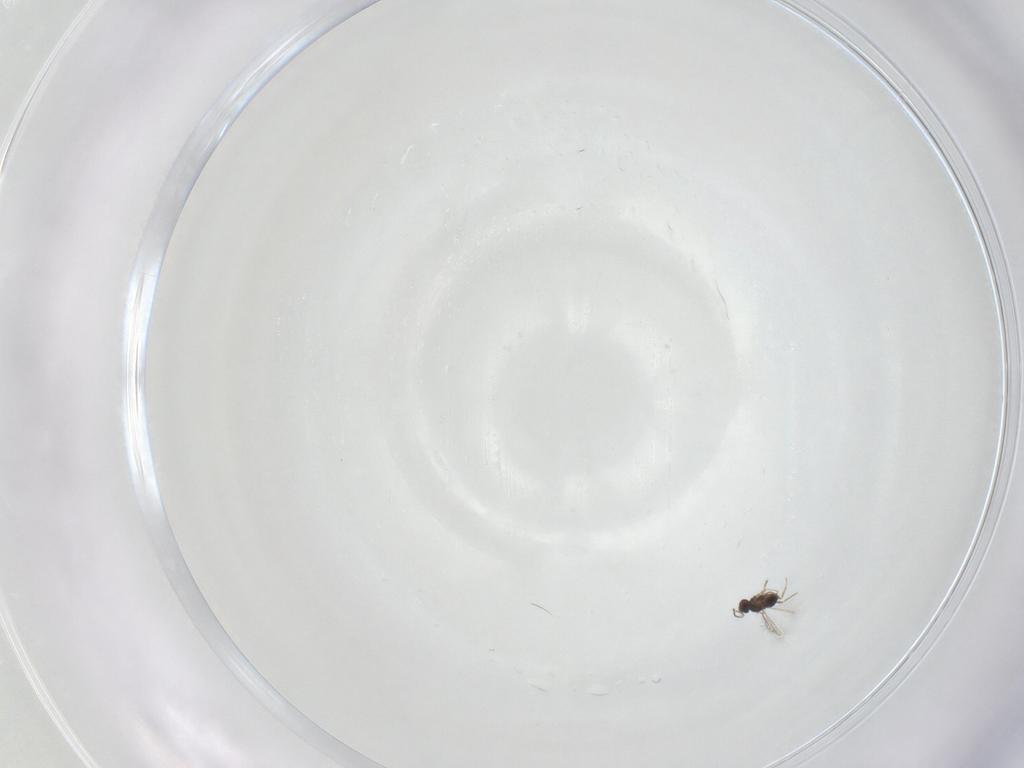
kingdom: Animalia
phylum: Arthropoda
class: Insecta
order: Hymenoptera
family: Mymaridae
